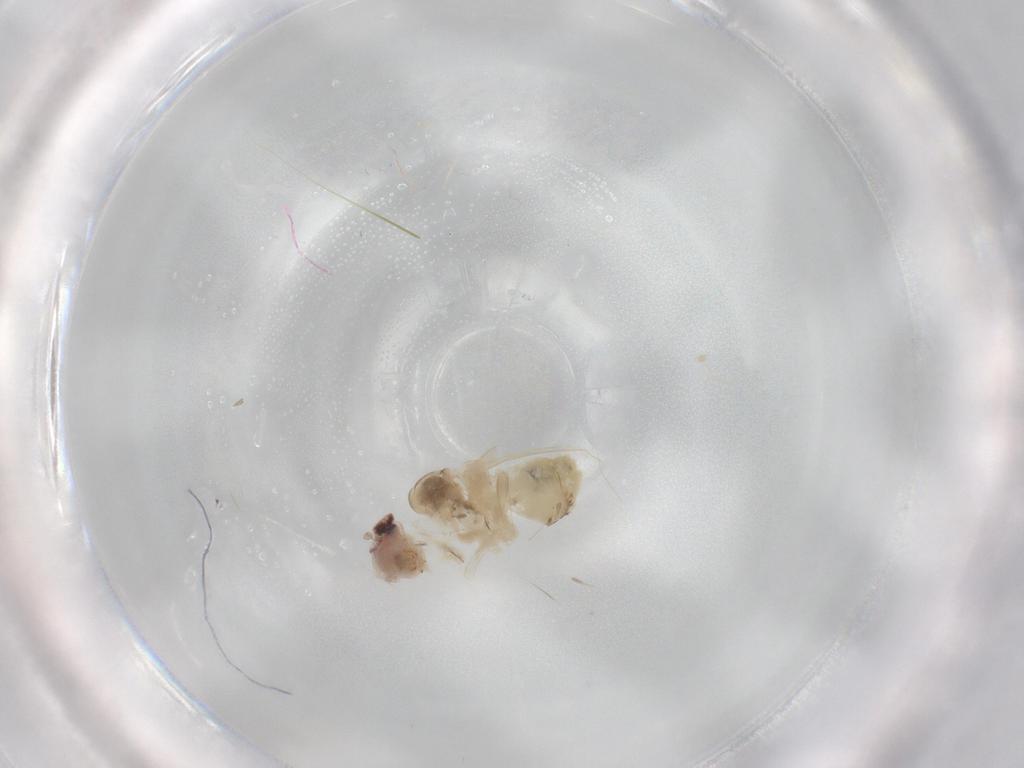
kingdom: Animalia
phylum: Arthropoda
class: Insecta
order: Psocodea
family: Caeciliusidae
